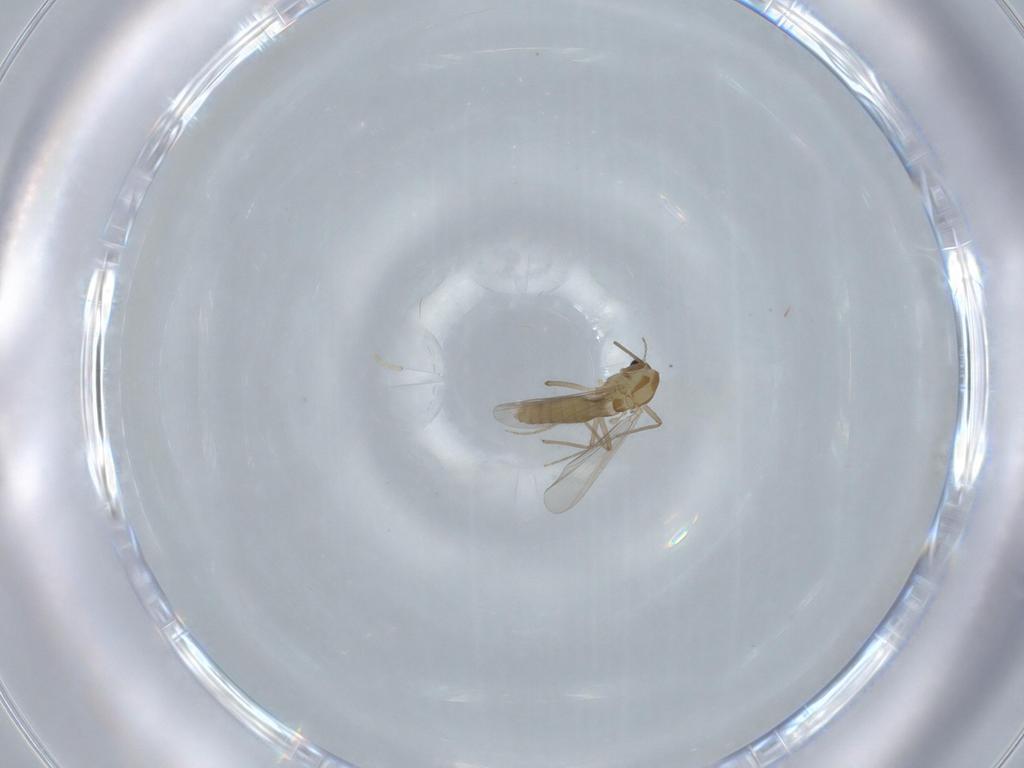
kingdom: Animalia
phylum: Arthropoda
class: Insecta
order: Diptera
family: Chironomidae
